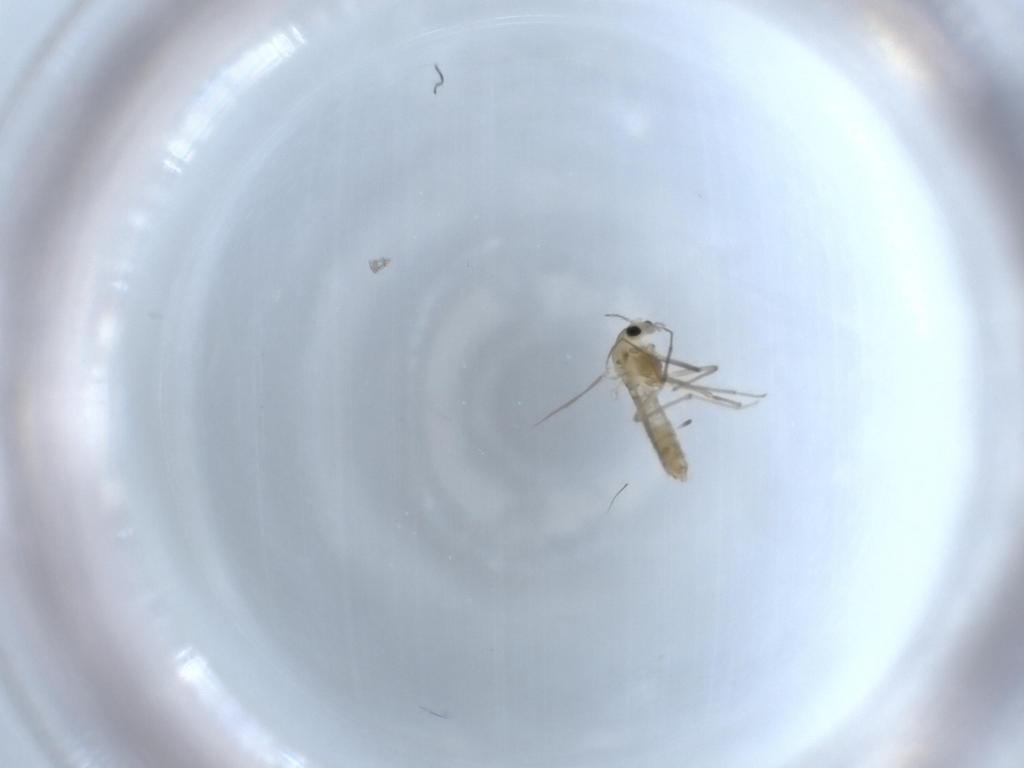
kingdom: Animalia
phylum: Arthropoda
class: Insecta
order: Diptera
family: Chironomidae
